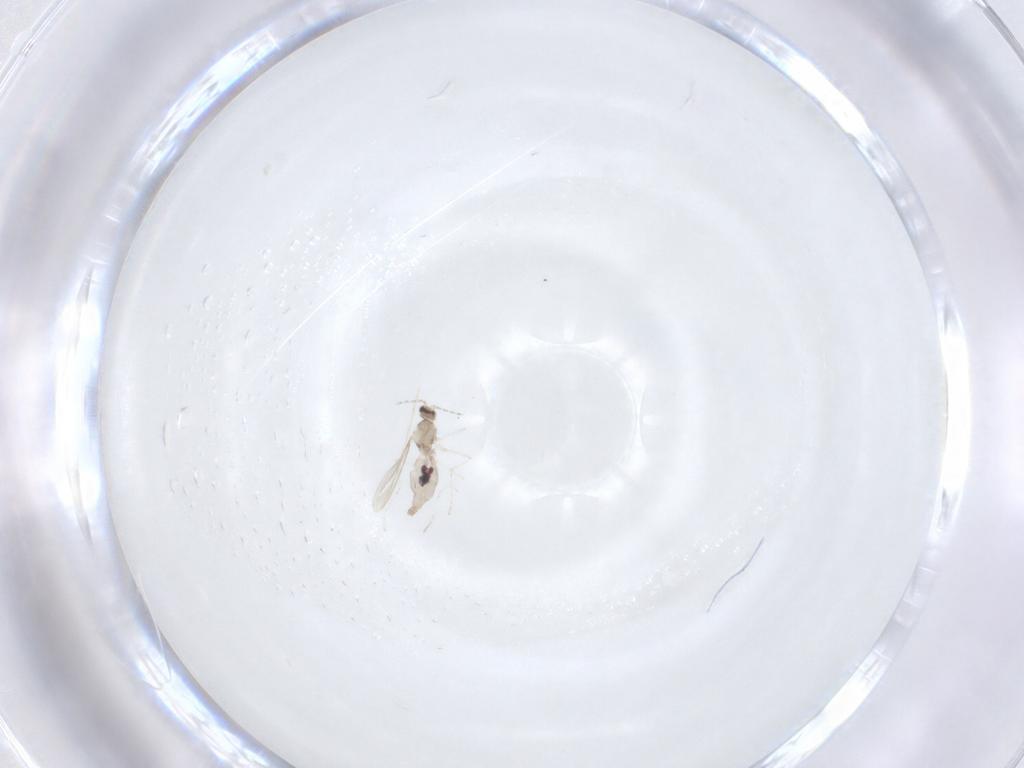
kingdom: Animalia
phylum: Arthropoda
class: Insecta
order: Diptera
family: Cecidomyiidae
